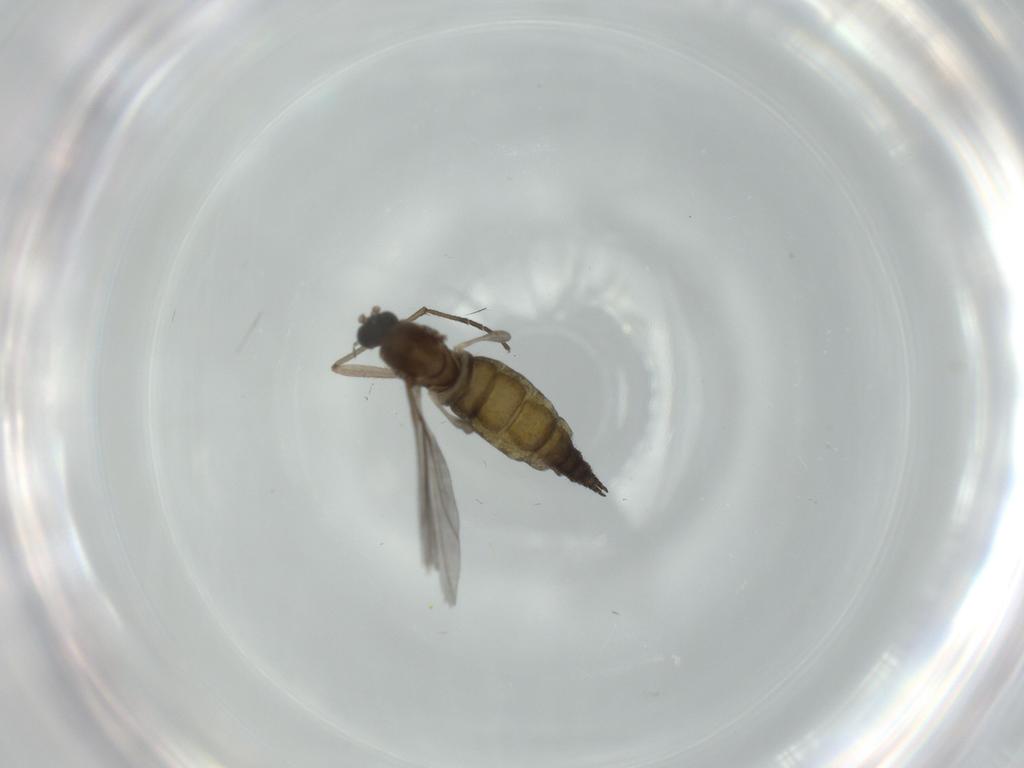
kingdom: Animalia
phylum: Arthropoda
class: Insecta
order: Diptera
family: Sciaridae
